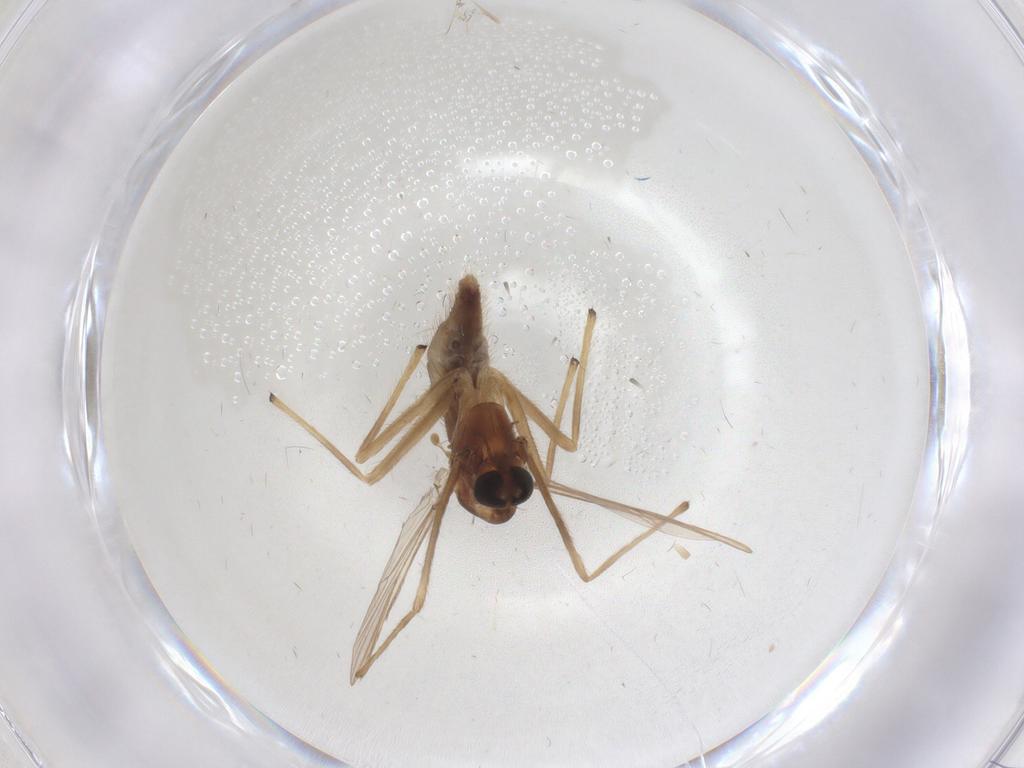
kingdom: Animalia
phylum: Arthropoda
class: Insecta
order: Diptera
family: Chironomidae
